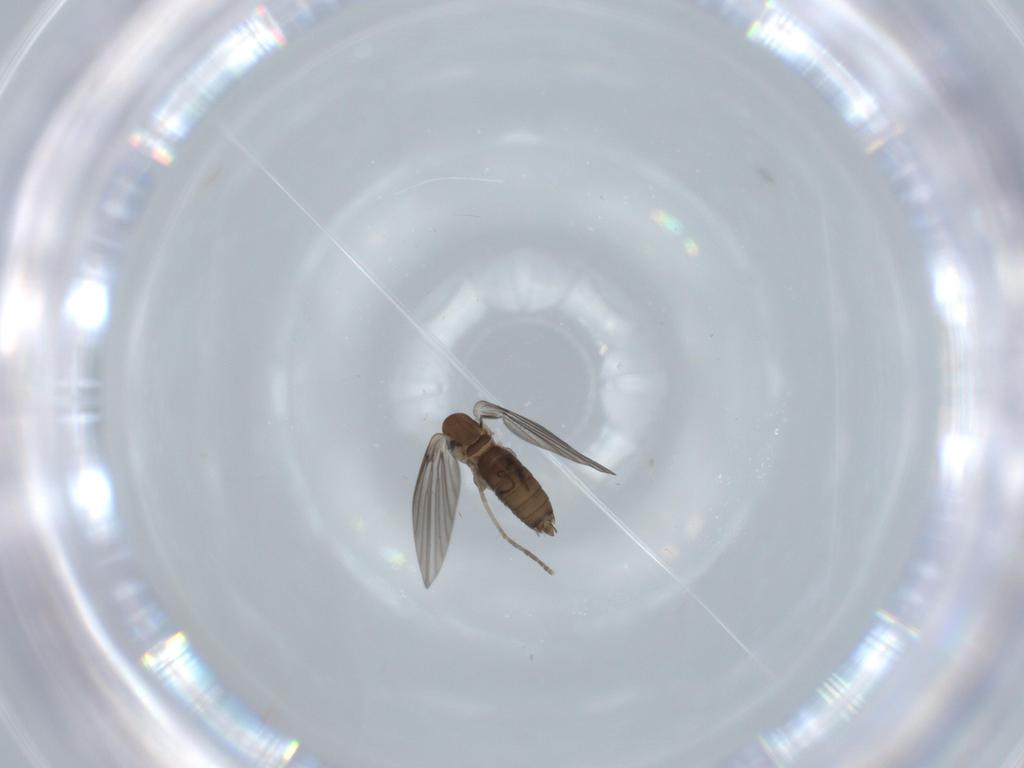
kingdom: Animalia
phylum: Arthropoda
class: Insecta
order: Diptera
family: Psychodidae
